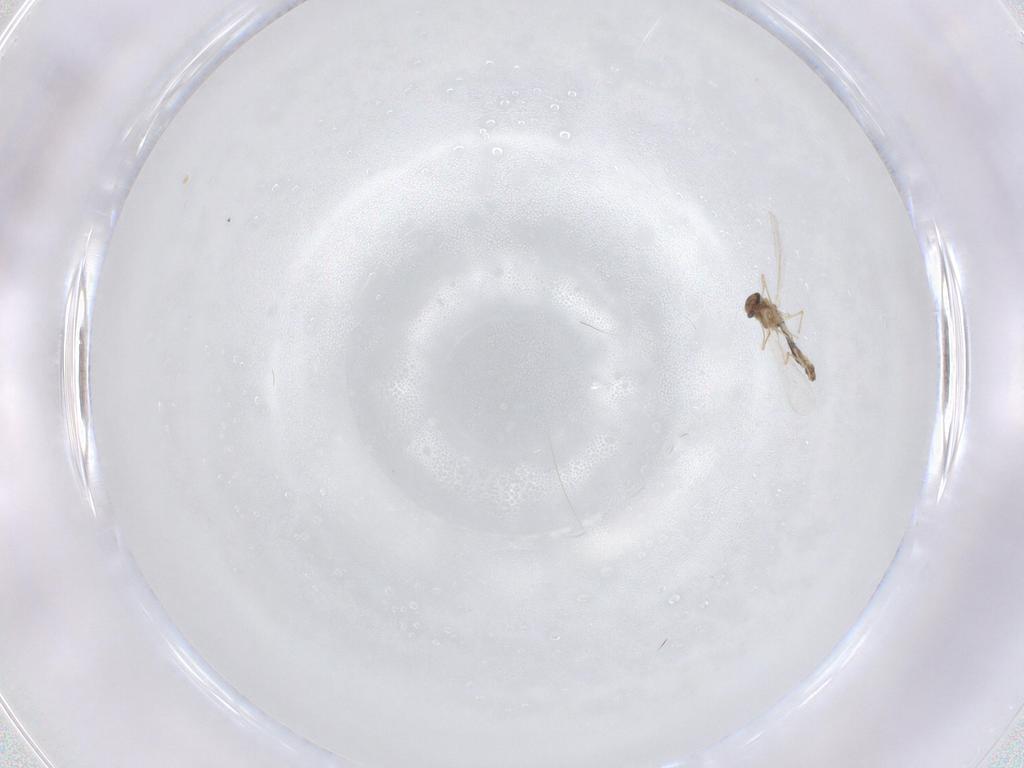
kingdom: Animalia
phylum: Arthropoda
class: Insecta
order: Diptera
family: Chironomidae
